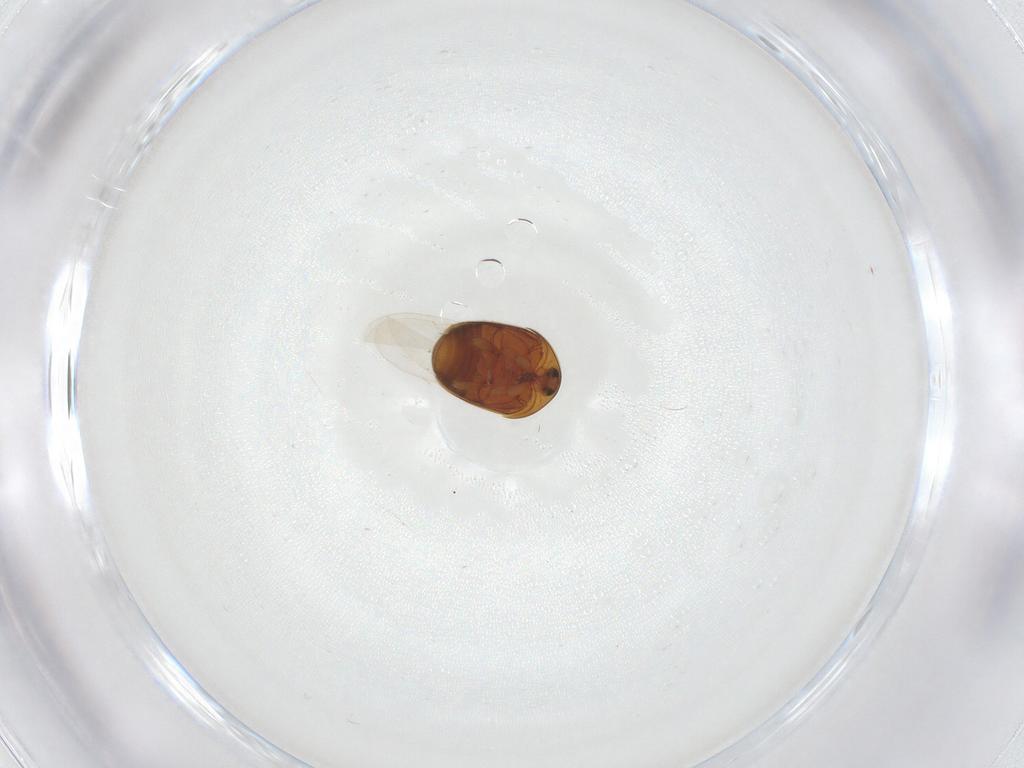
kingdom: Animalia
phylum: Arthropoda
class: Insecta
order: Coleoptera
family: Corylophidae
